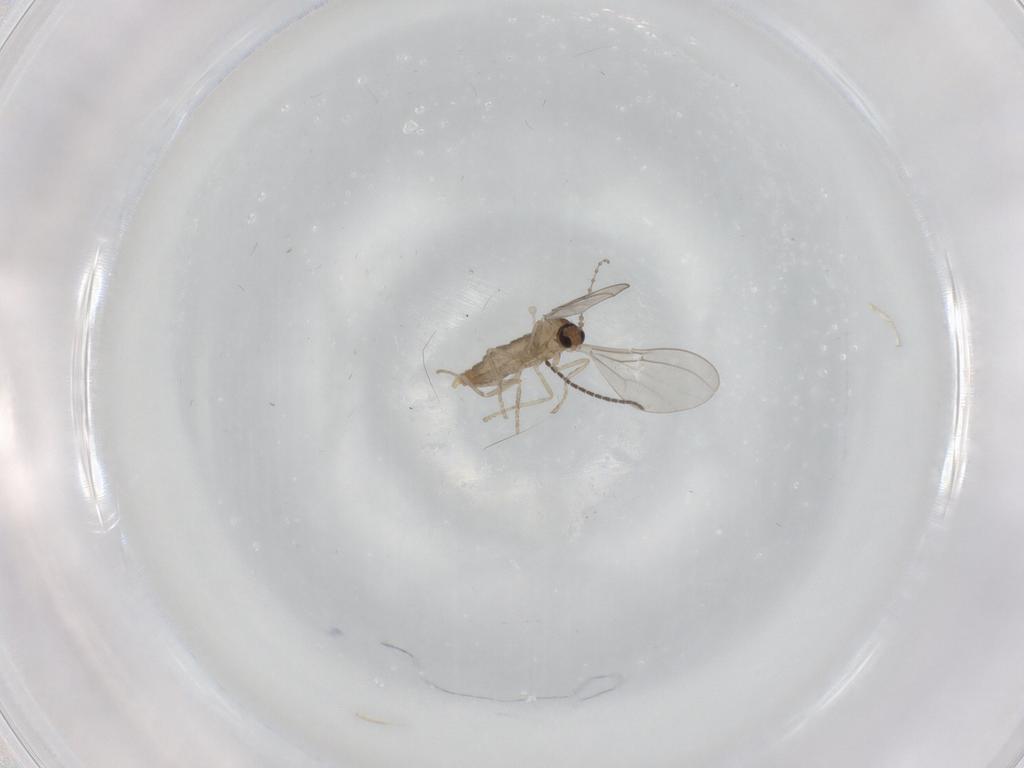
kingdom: Animalia
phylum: Arthropoda
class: Insecta
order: Diptera
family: Cecidomyiidae
